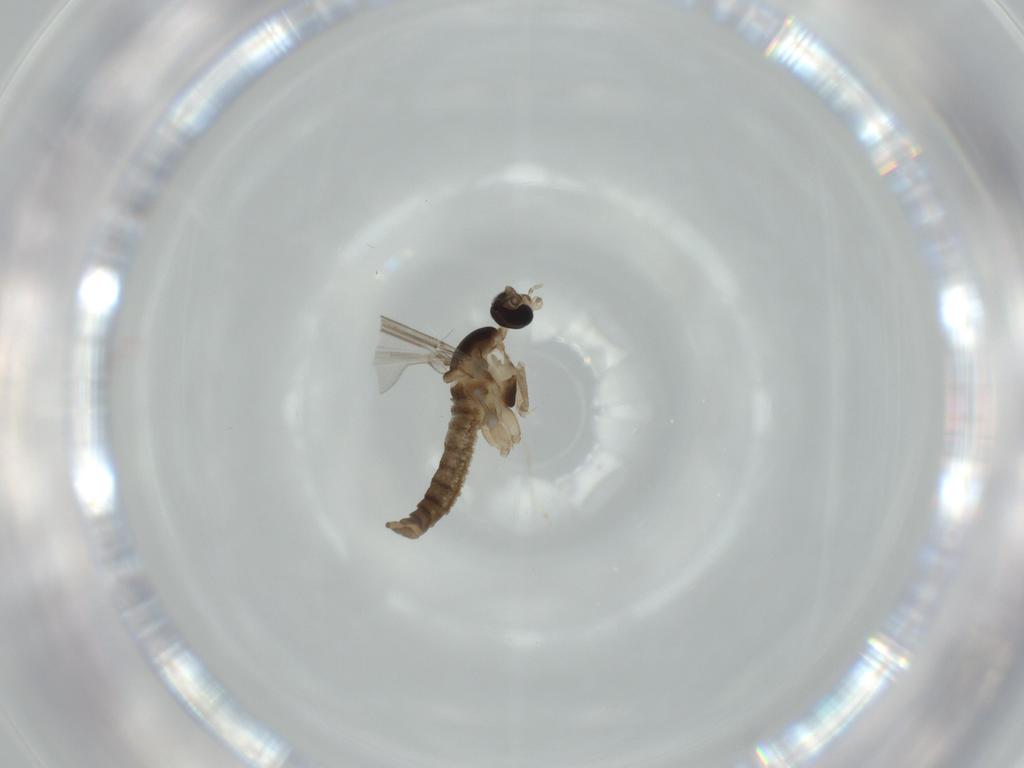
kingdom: Animalia
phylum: Arthropoda
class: Insecta
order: Diptera
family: Cecidomyiidae
